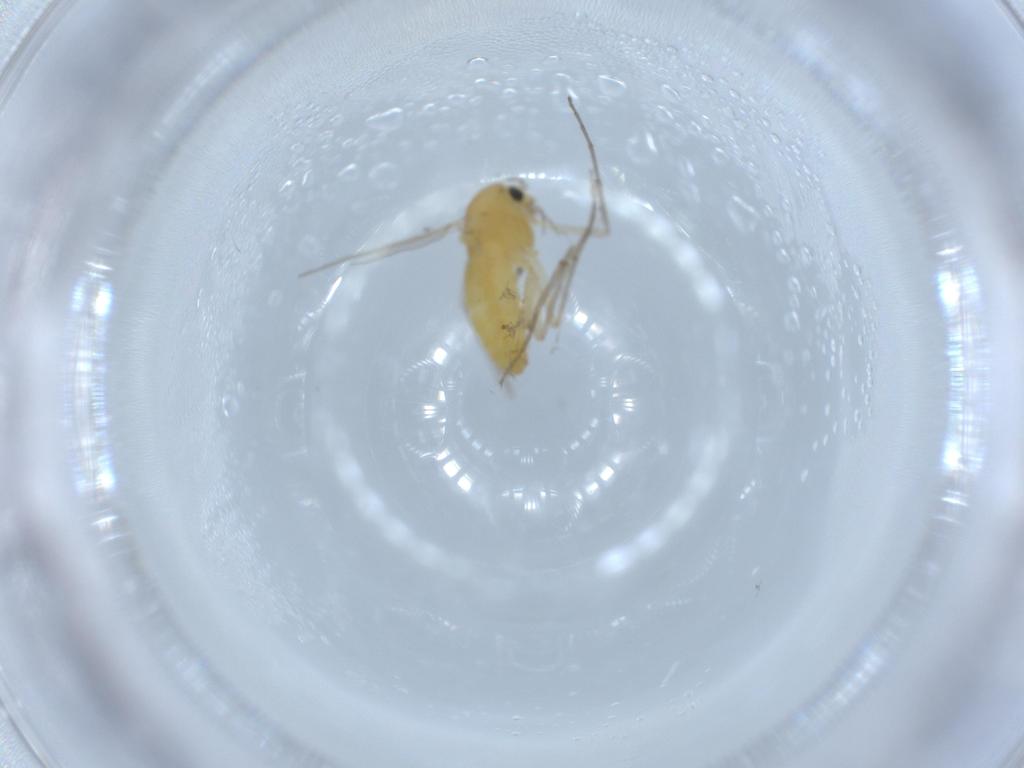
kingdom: Animalia
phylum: Arthropoda
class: Insecta
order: Diptera
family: Chironomidae
